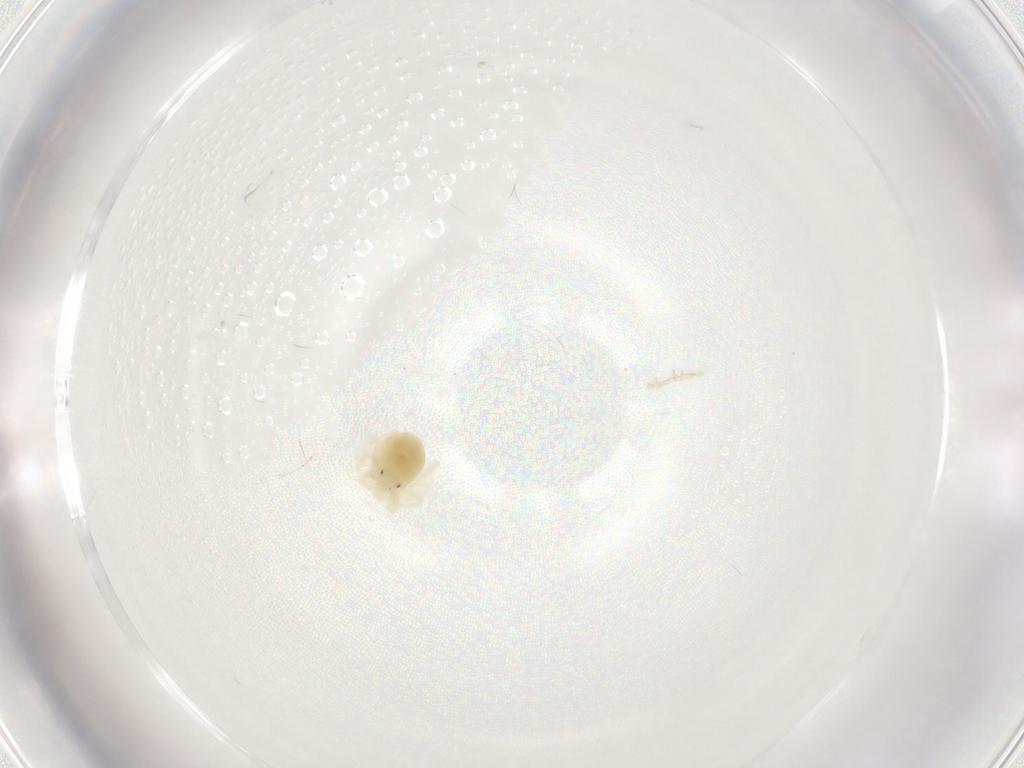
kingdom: Animalia
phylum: Arthropoda
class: Arachnida
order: Trombidiformes
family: Anystidae
